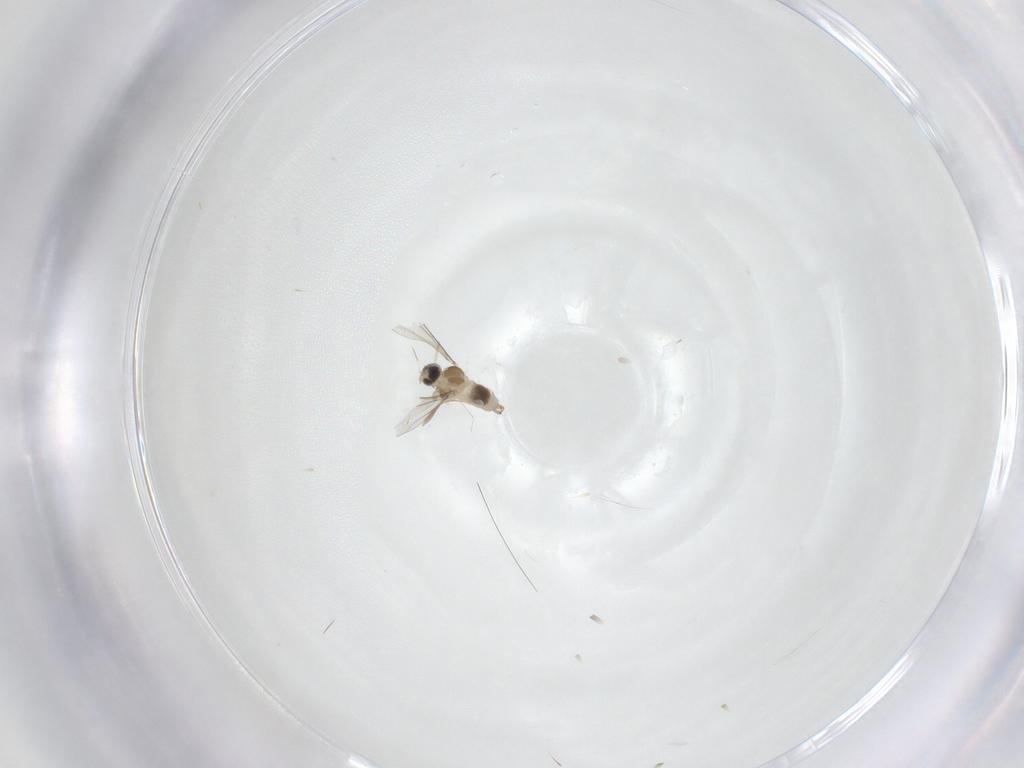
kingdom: Animalia
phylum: Arthropoda
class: Insecta
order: Diptera
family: Cecidomyiidae
